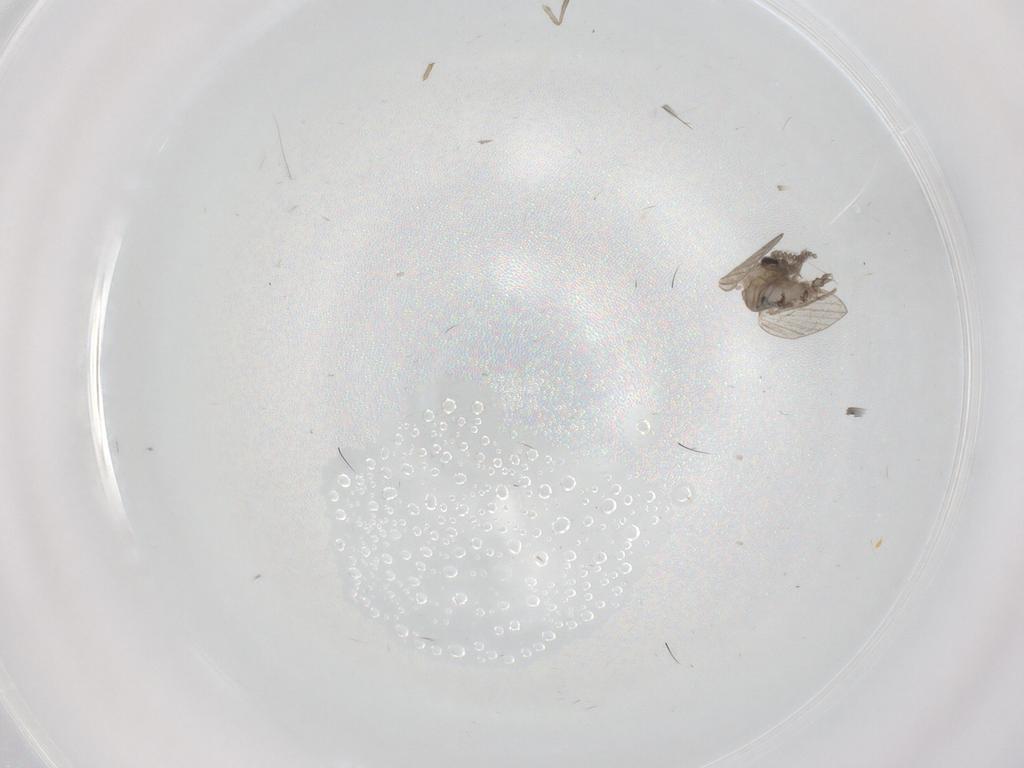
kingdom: Animalia
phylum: Arthropoda
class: Insecta
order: Diptera
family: Psychodidae
